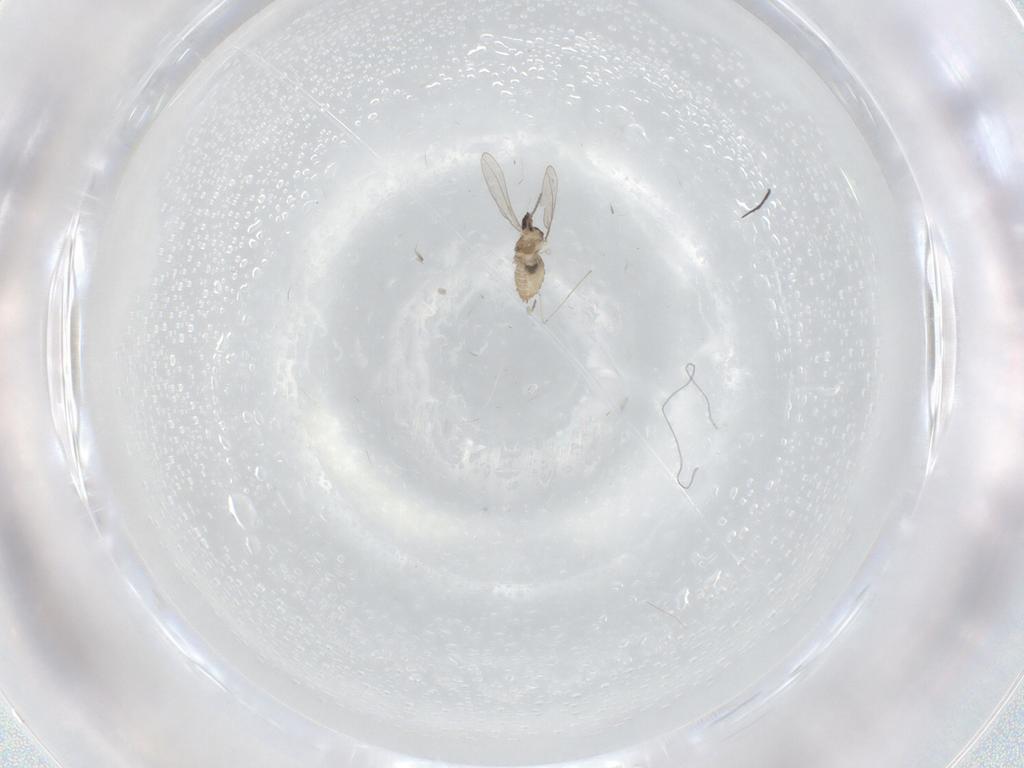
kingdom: Animalia
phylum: Arthropoda
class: Insecta
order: Diptera
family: Cecidomyiidae
